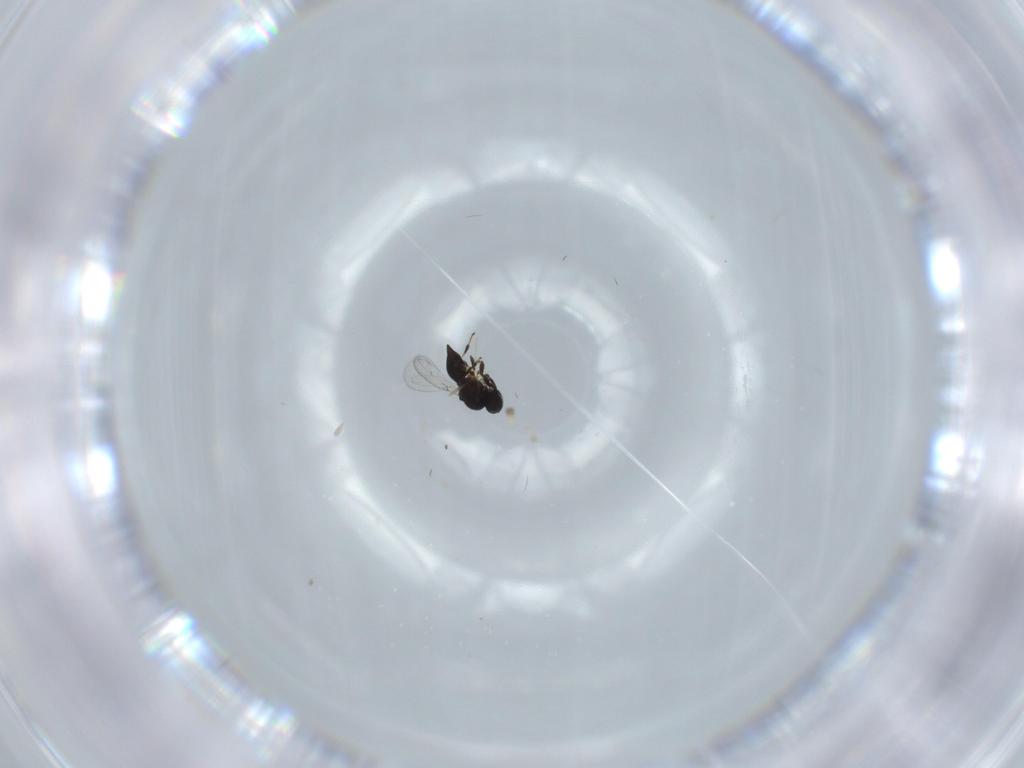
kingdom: Animalia
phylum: Arthropoda
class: Insecta
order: Hymenoptera
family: Platygastridae
